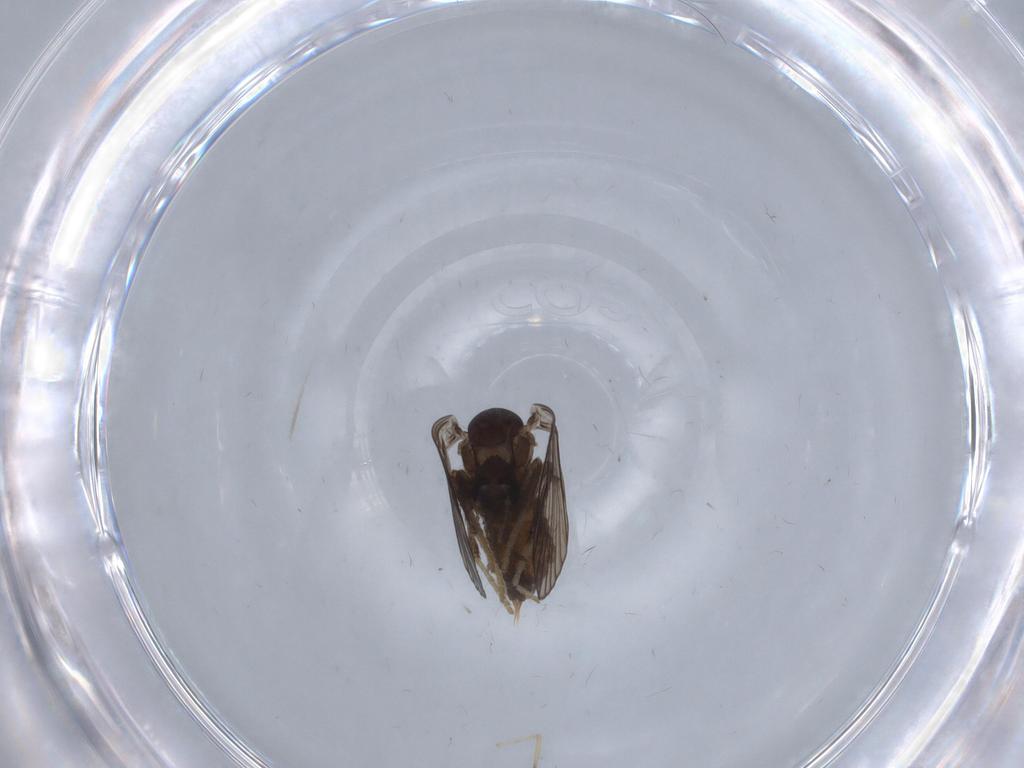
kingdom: Animalia
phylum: Arthropoda
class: Insecta
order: Diptera
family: Psychodidae
